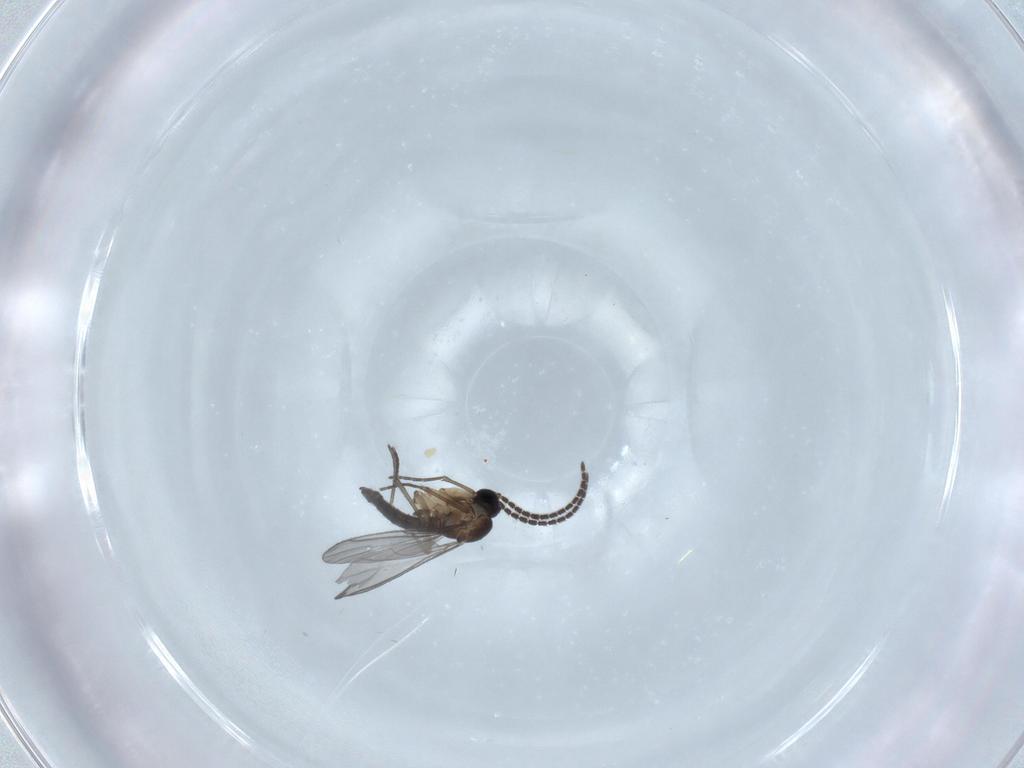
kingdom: Animalia
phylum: Arthropoda
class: Insecta
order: Diptera
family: Sciaridae
